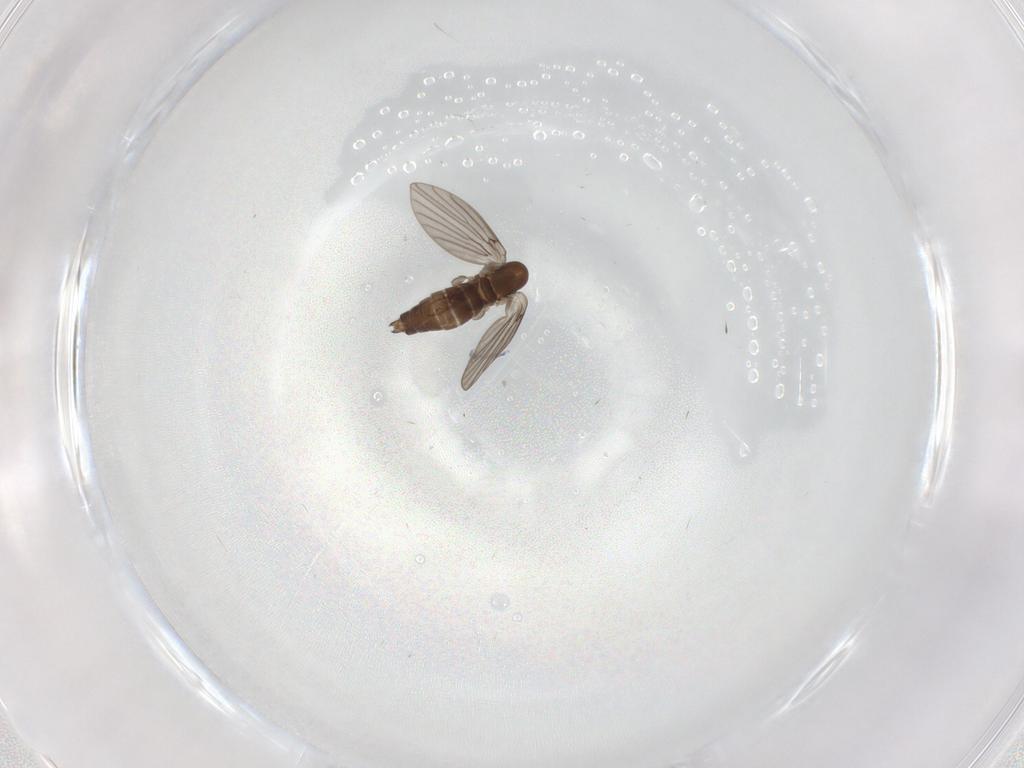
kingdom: Animalia
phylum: Arthropoda
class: Insecta
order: Diptera
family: Psychodidae
